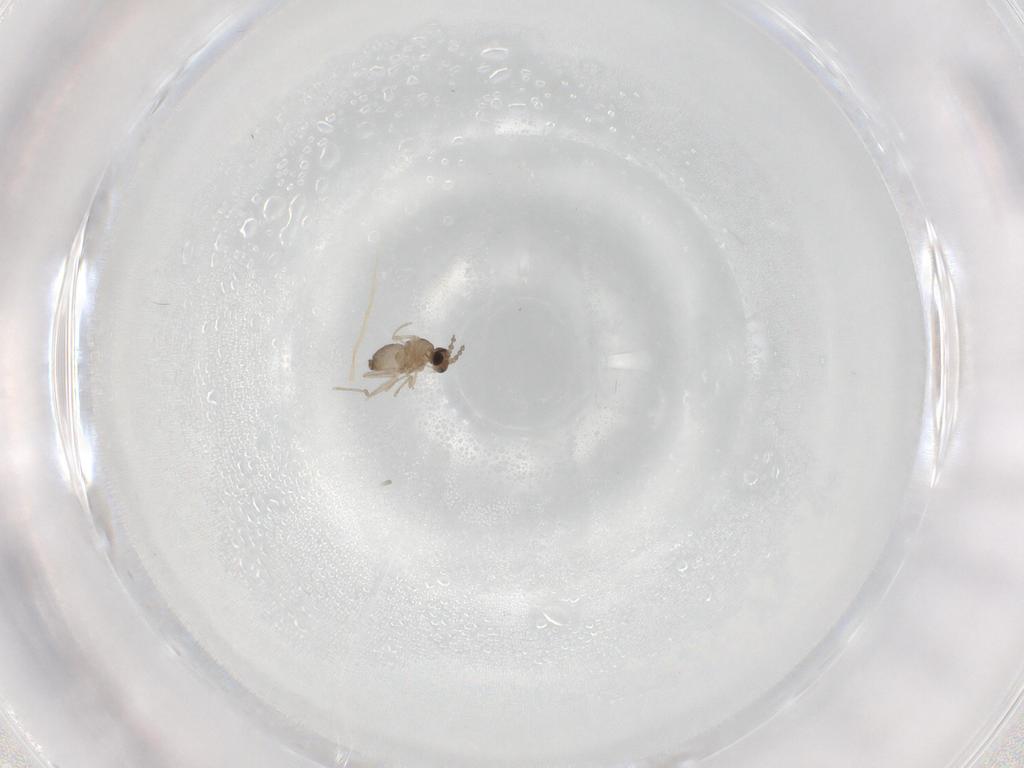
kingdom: Animalia
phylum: Arthropoda
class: Insecta
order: Diptera
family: Cecidomyiidae
